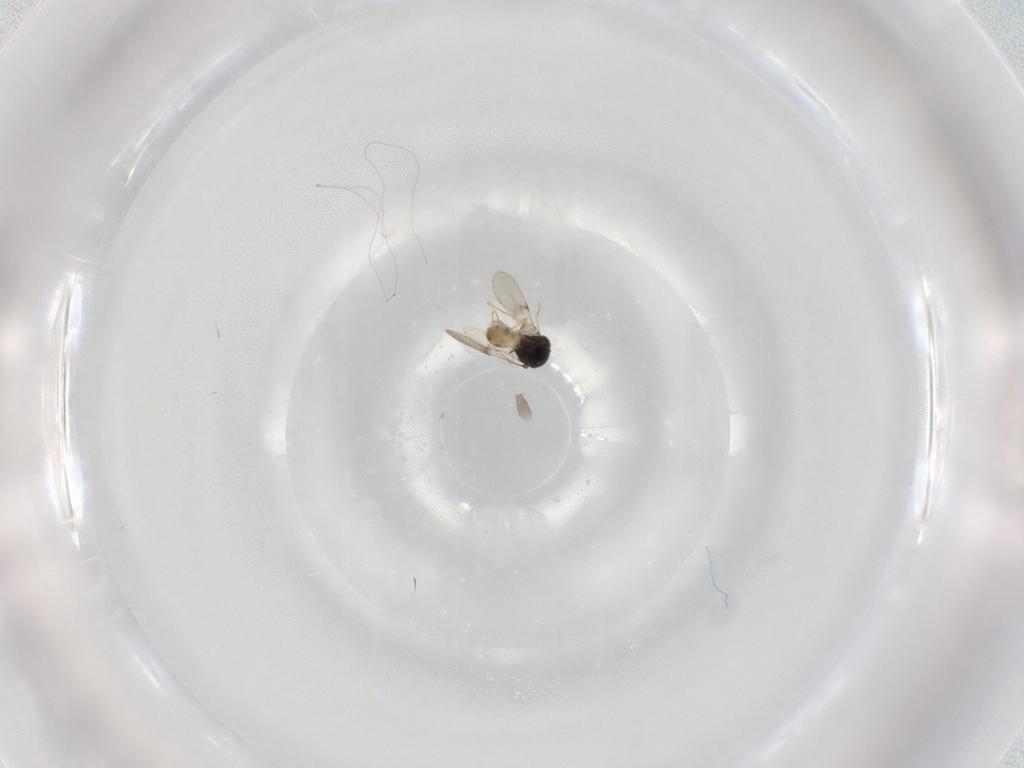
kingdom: Animalia
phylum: Arthropoda
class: Insecta
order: Hymenoptera
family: Scelionidae
